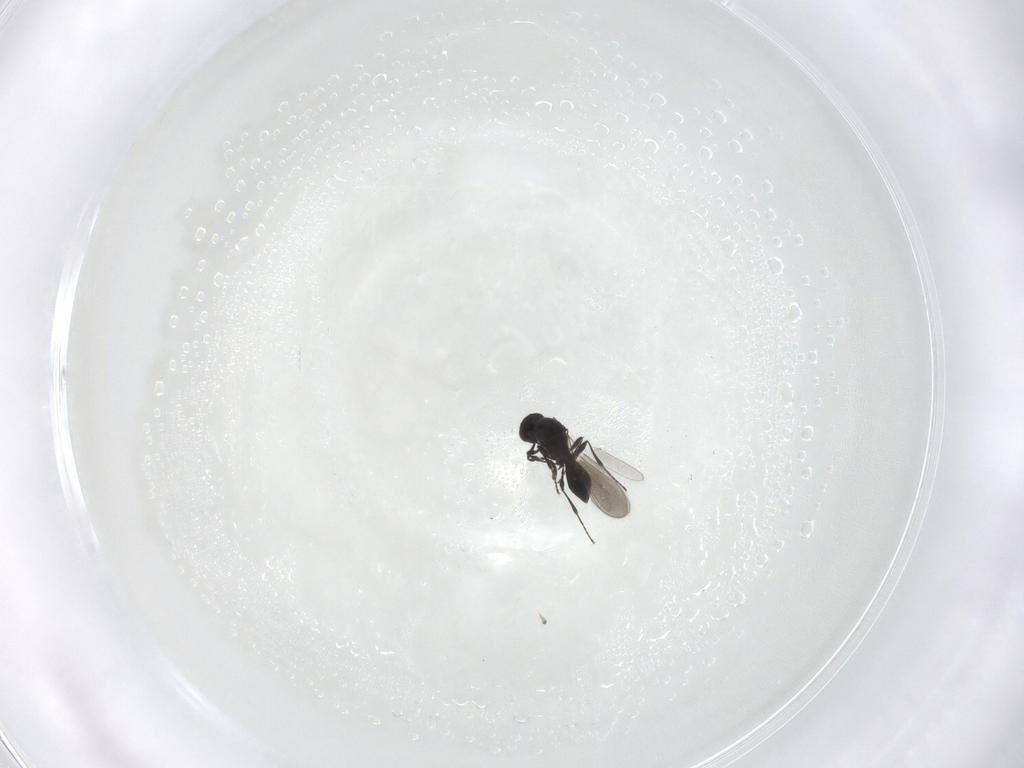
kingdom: Animalia
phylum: Arthropoda
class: Insecta
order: Hymenoptera
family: Platygastridae
